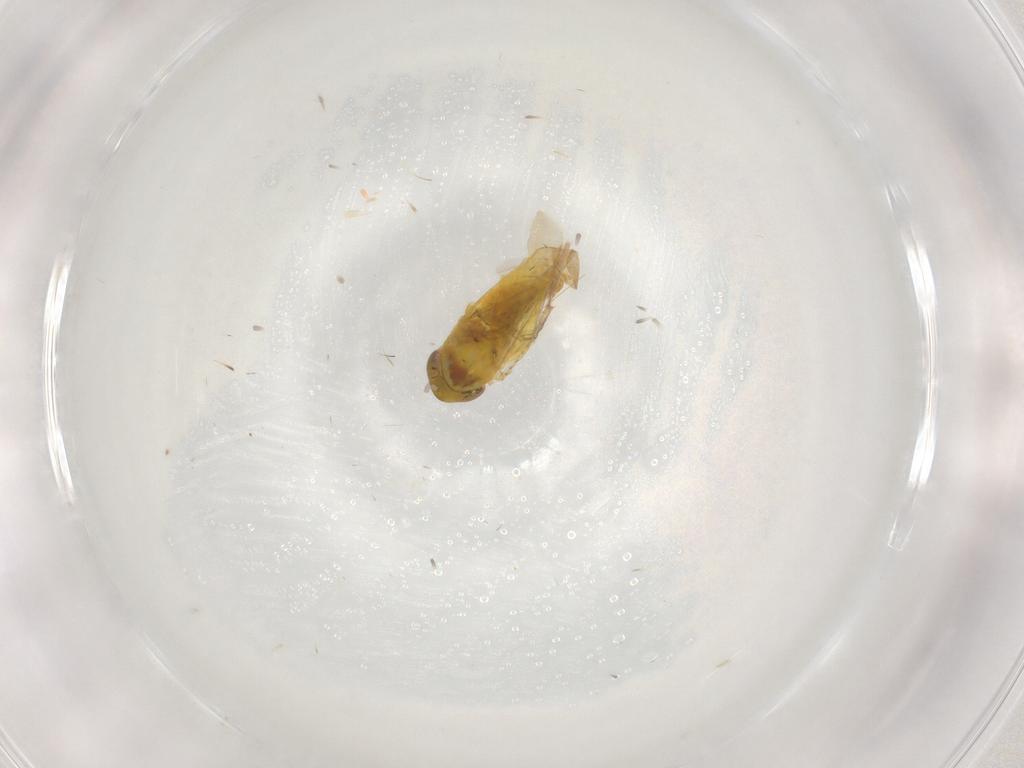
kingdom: Animalia
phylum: Arthropoda
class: Insecta
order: Hemiptera
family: Cicadellidae
